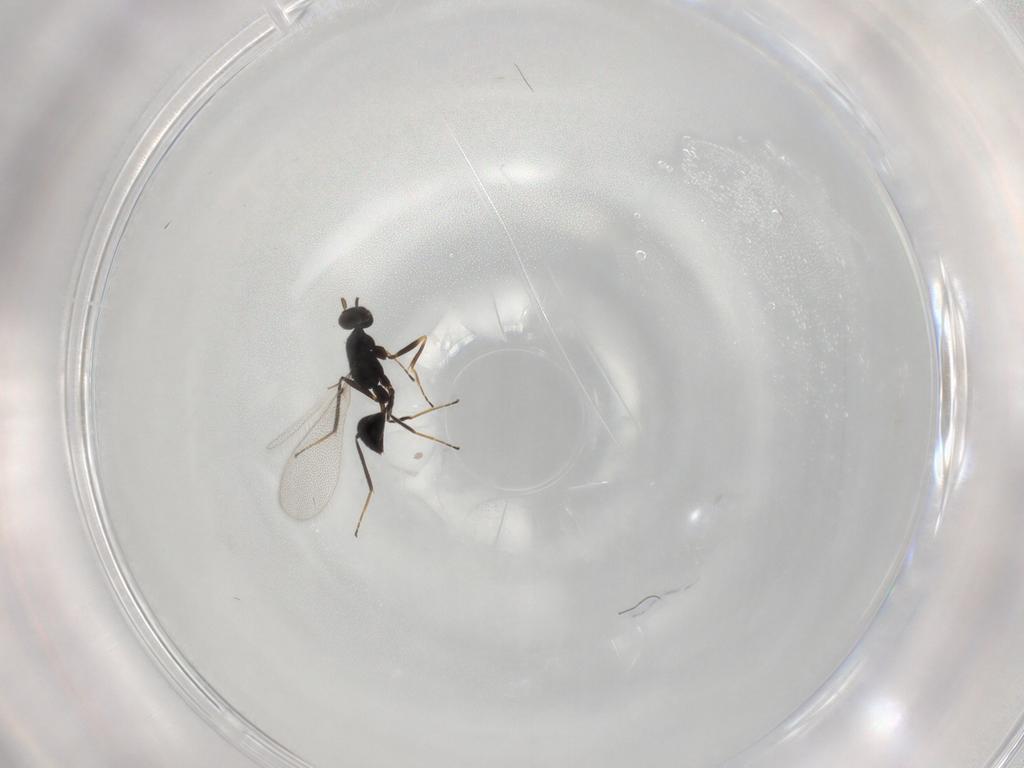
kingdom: Animalia
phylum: Arthropoda
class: Insecta
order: Hymenoptera
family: Mymaridae
